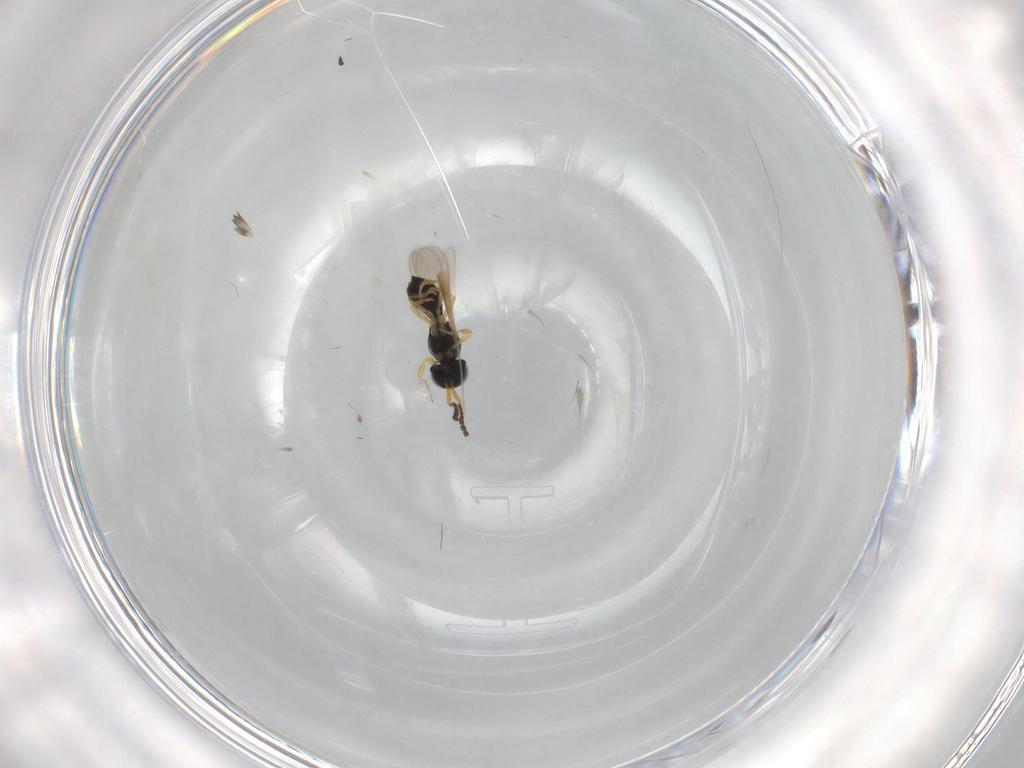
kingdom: Animalia
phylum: Arthropoda
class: Insecta
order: Hymenoptera
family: Scelionidae
